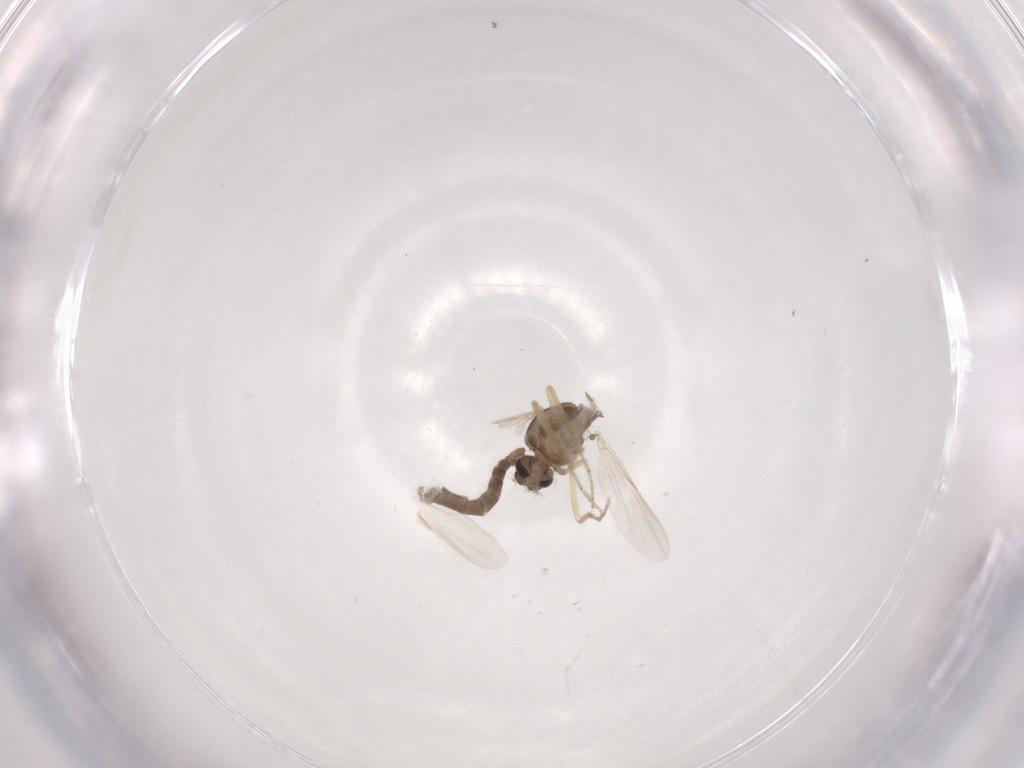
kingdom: Animalia
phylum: Arthropoda
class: Insecta
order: Diptera
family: Ceratopogonidae
